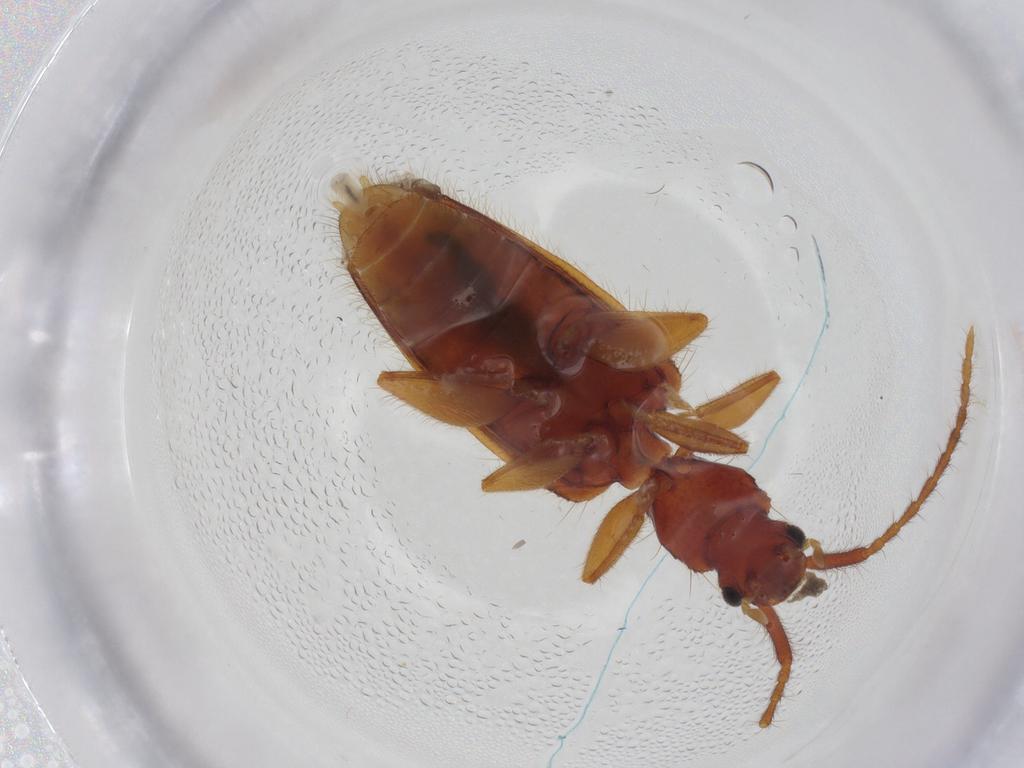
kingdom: Animalia
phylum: Arthropoda
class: Insecta
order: Coleoptera
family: Silvanidae
